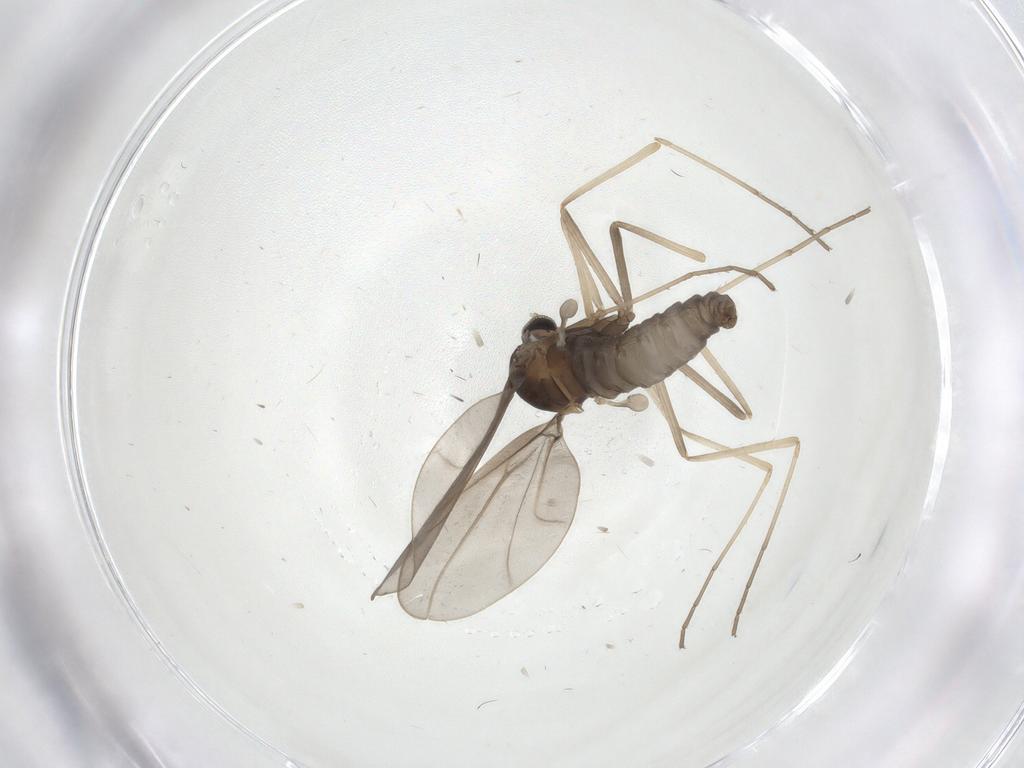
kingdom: Animalia
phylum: Arthropoda
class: Insecta
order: Diptera
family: Cecidomyiidae
